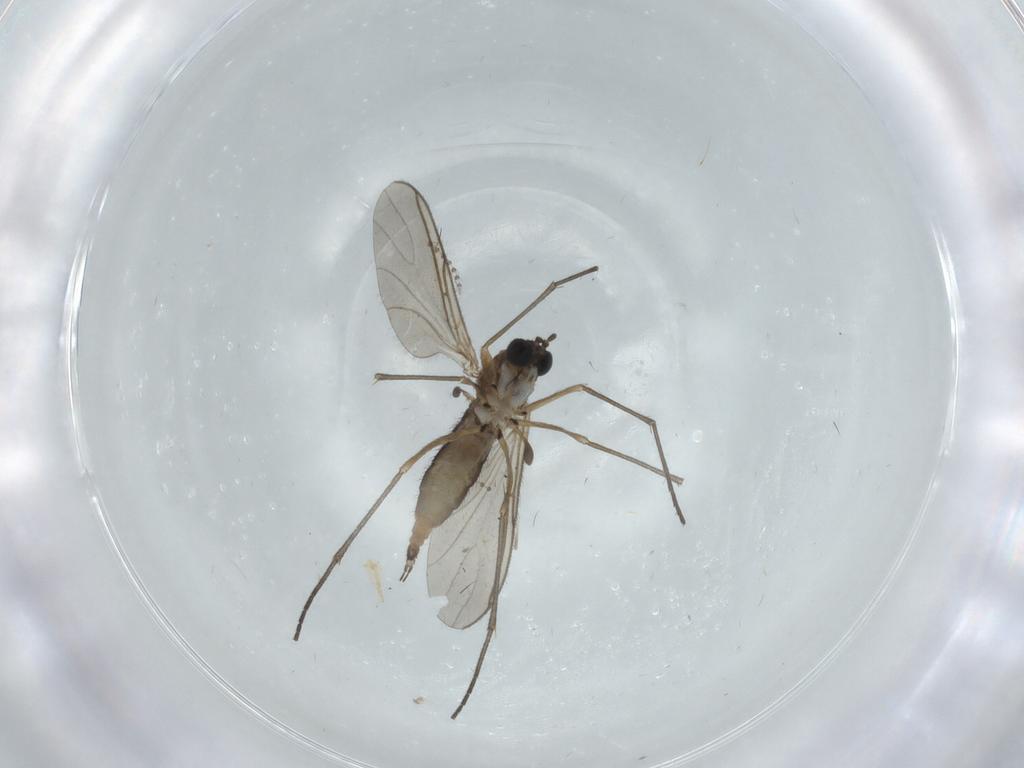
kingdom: Animalia
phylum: Arthropoda
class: Insecta
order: Diptera
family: Sciaridae
